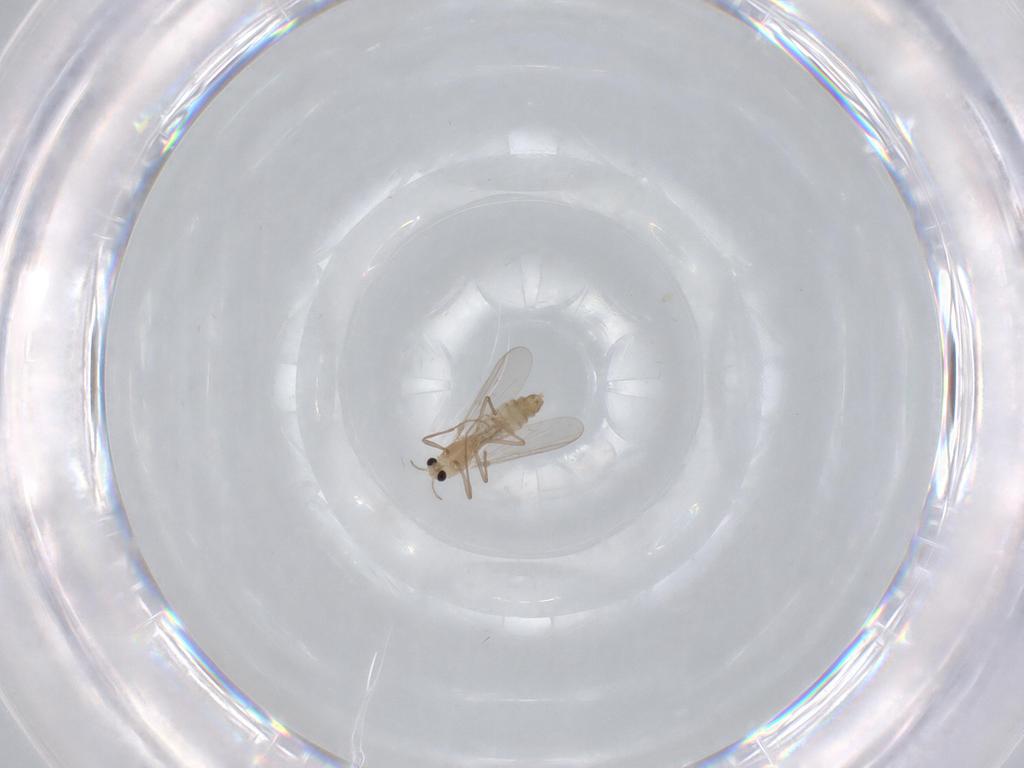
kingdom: Animalia
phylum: Arthropoda
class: Insecta
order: Diptera
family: Chironomidae
